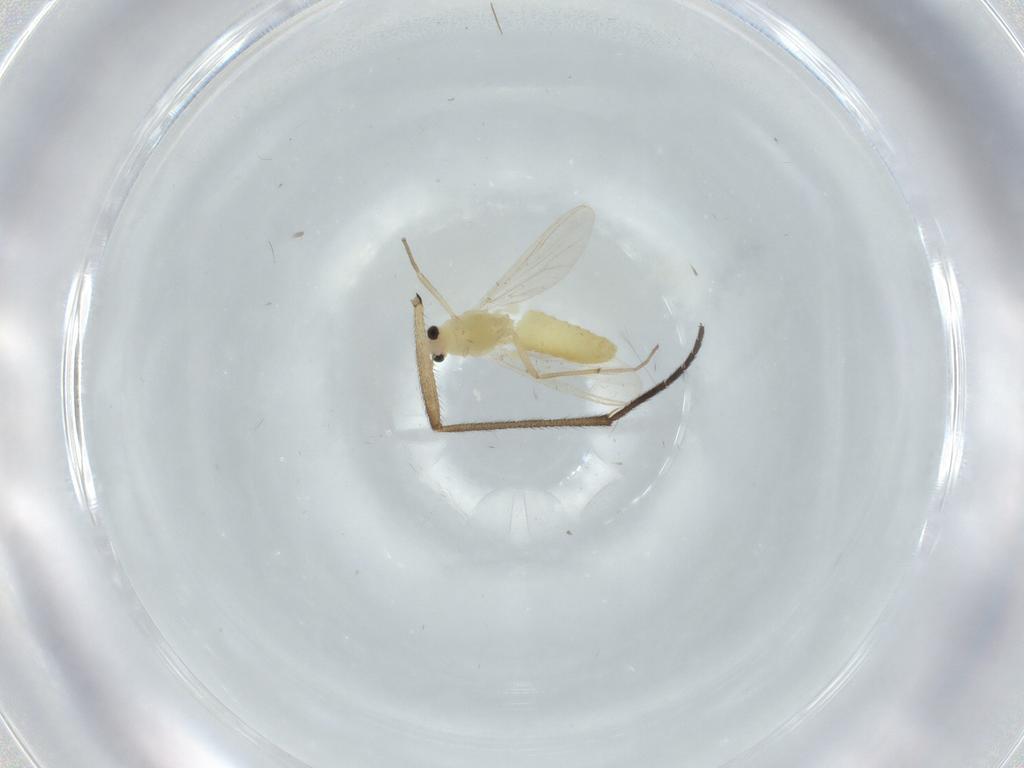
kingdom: Animalia
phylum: Arthropoda
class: Insecta
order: Diptera
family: Chironomidae
